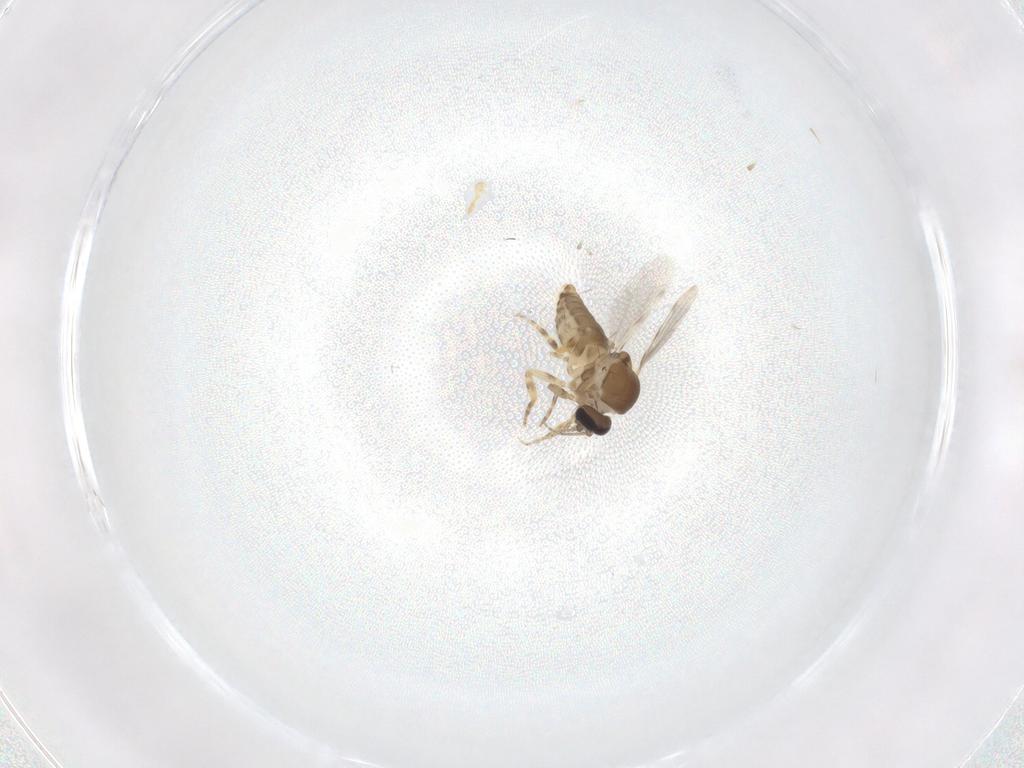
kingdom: Animalia
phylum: Arthropoda
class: Insecta
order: Diptera
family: Ceratopogonidae
